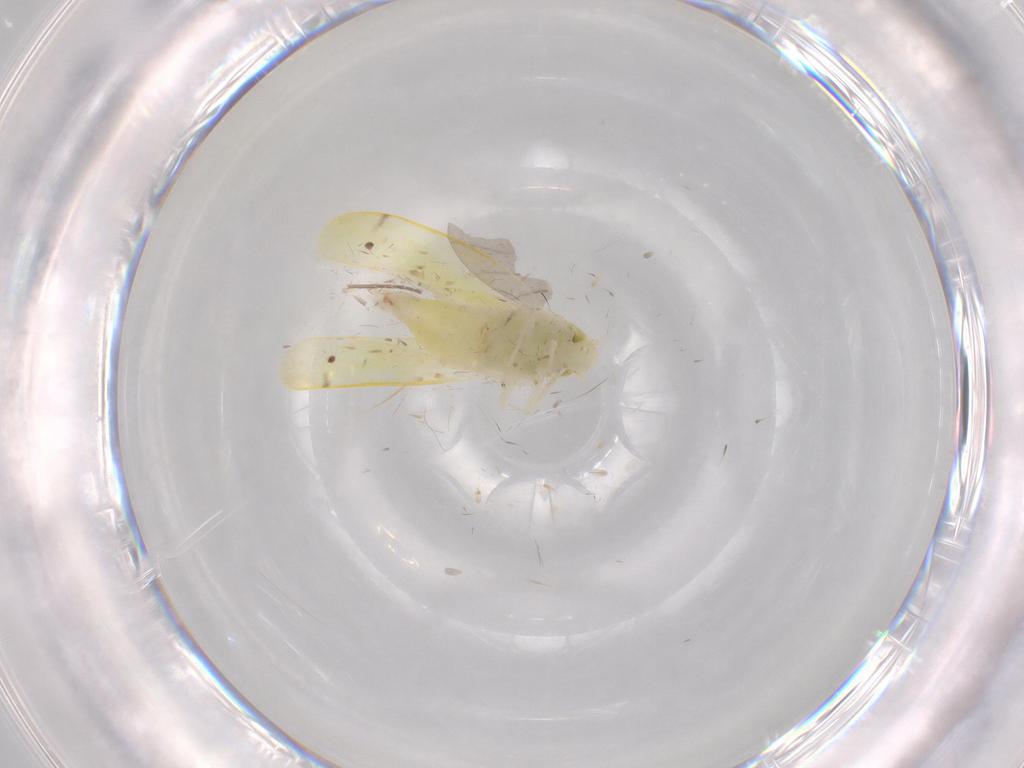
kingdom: Animalia
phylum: Arthropoda
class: Insecta
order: Hemiptera
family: Cicadellidae
